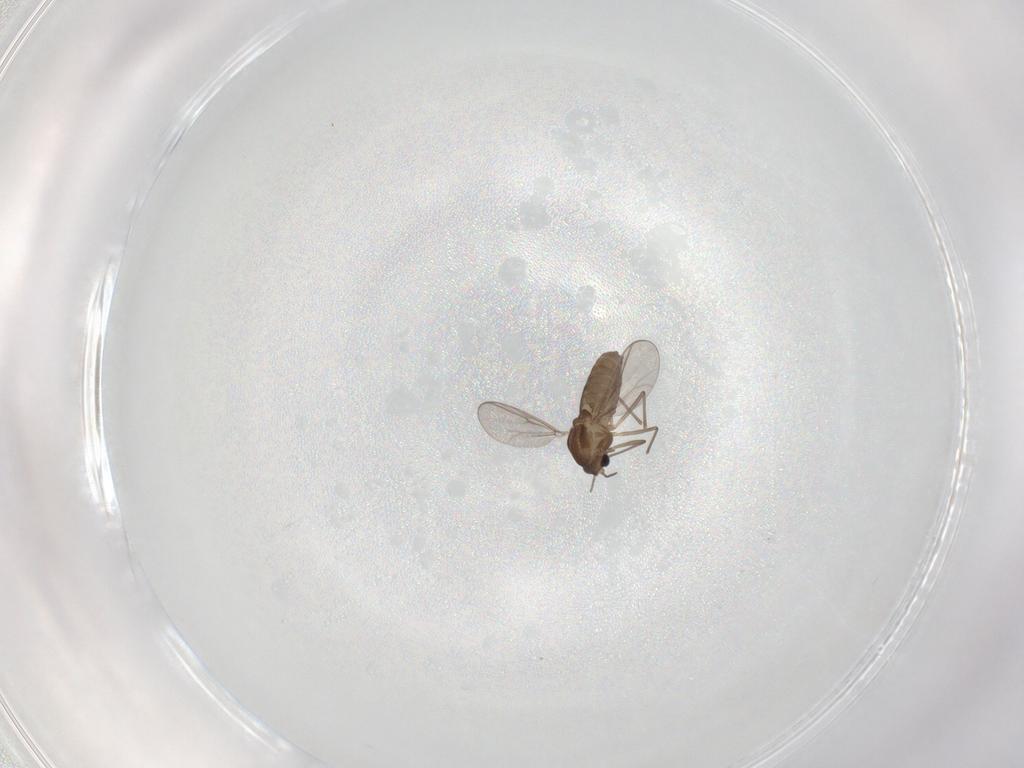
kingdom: Animalia
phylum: Arthropoda
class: Insecta
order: Diptera
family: Chironomidae
